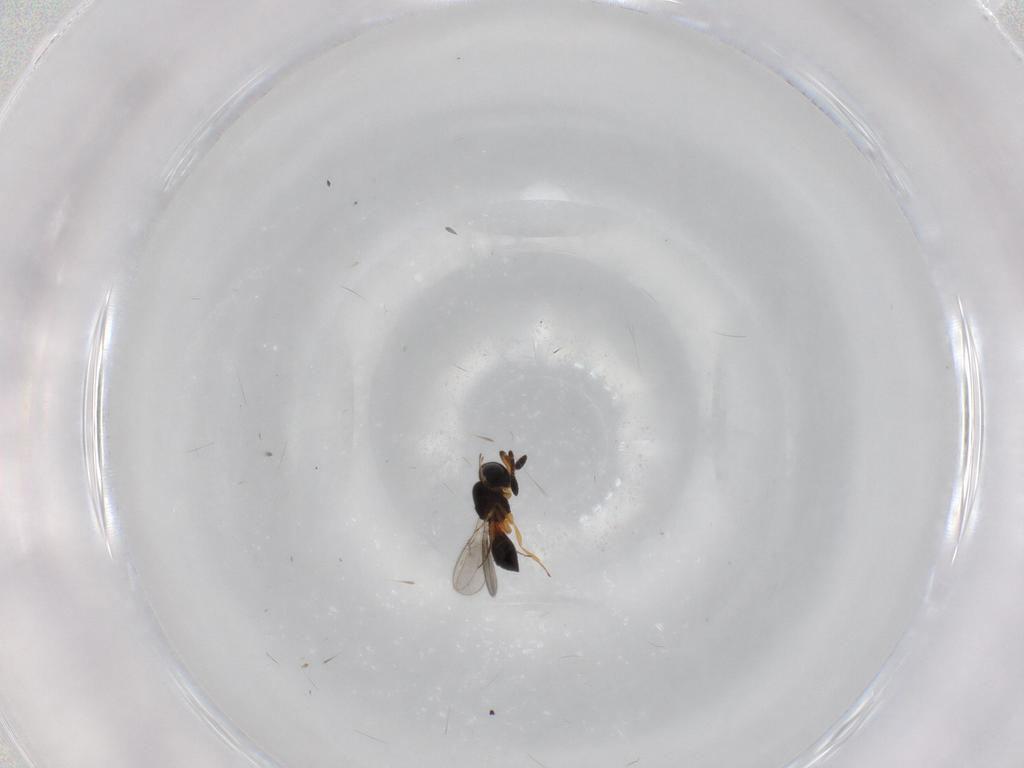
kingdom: Animalia
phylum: Arthropoda
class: Insecta
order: Hymenoptera
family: Scelionidae
